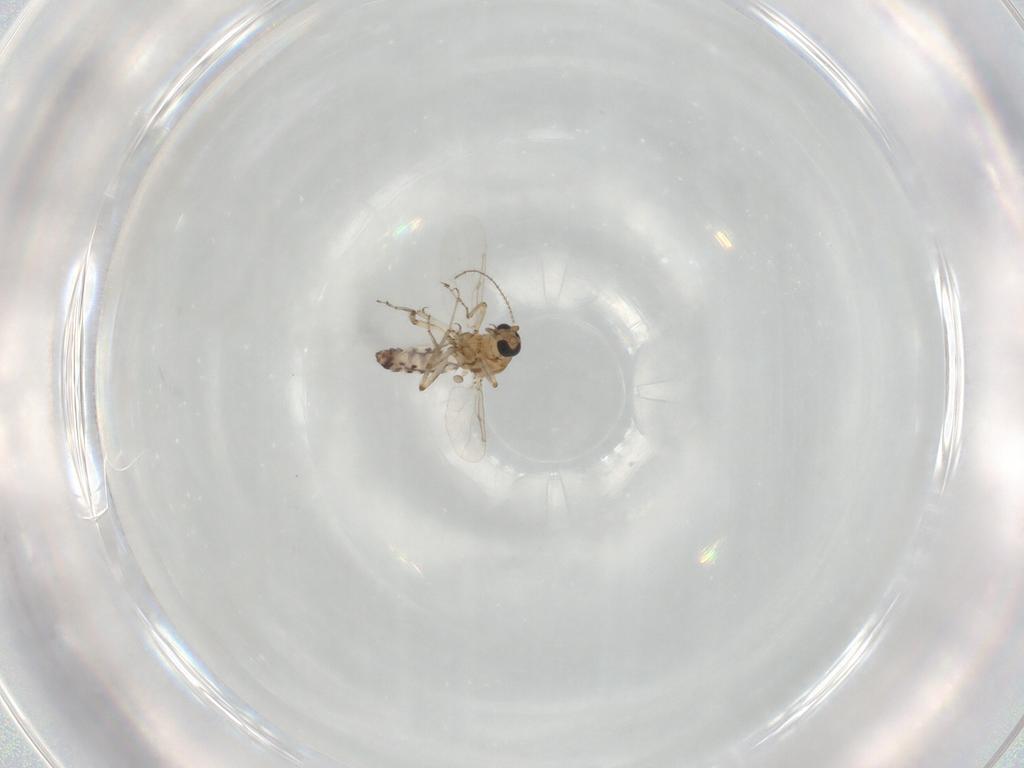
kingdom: Animalia
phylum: Arthropoda
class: Insecta
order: Diptera
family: Ceratopogonidae
